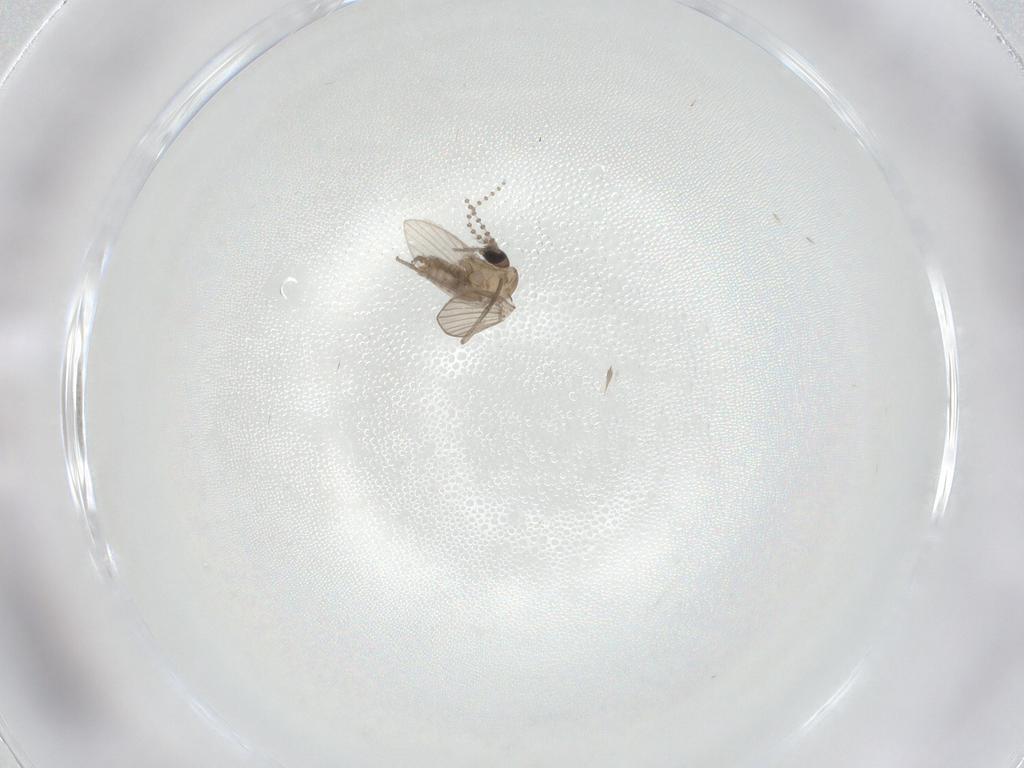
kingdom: Animalia
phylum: Arthropoda
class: Insecta
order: Diptera
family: Psychodidae
